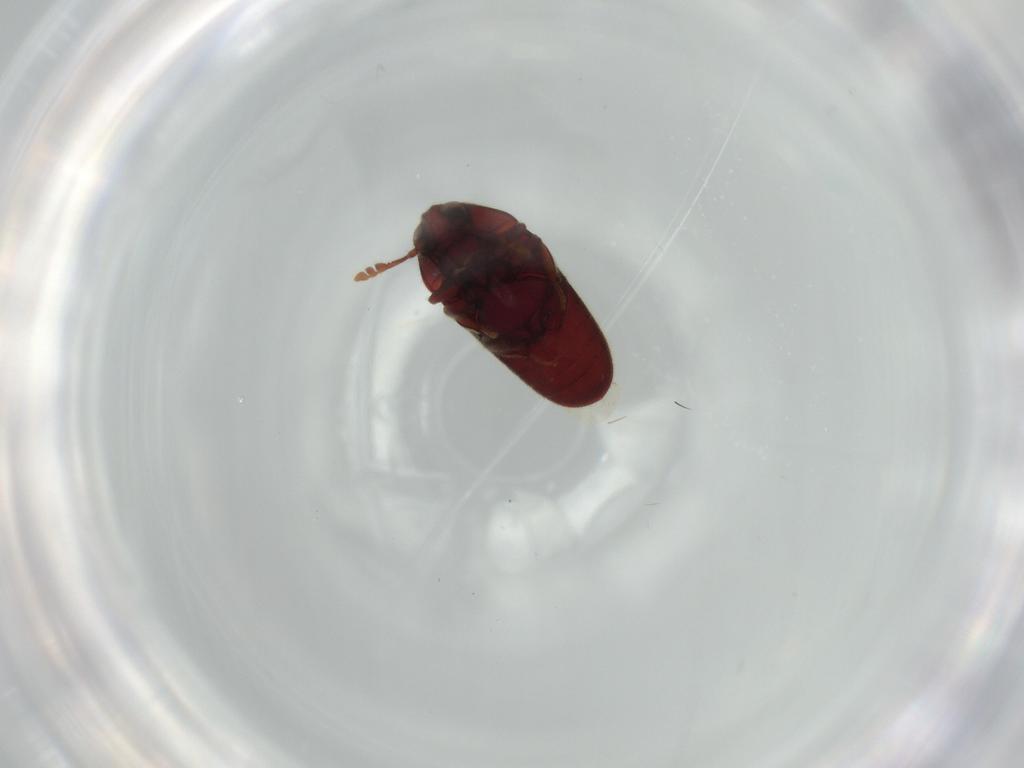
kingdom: Animalia
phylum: Arthropoda
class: Insecta
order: Coleoptera
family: Throscidae
